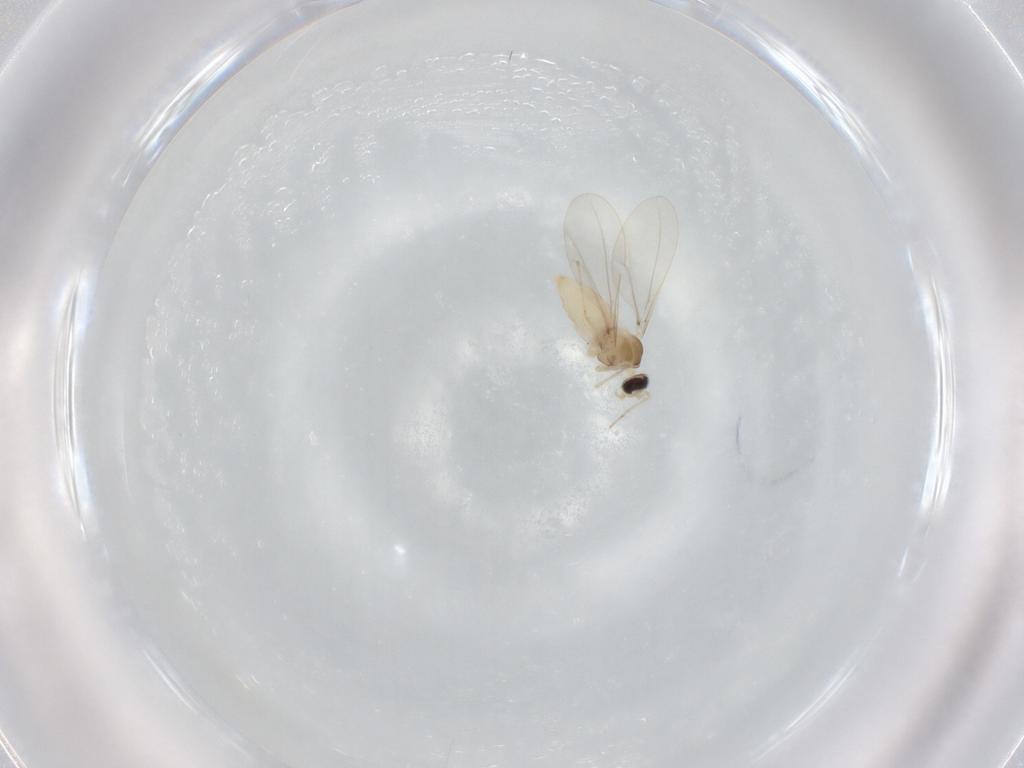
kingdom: Animalia
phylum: Arthropoda
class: Insecta
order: Diptera
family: Cecidomyiidae
